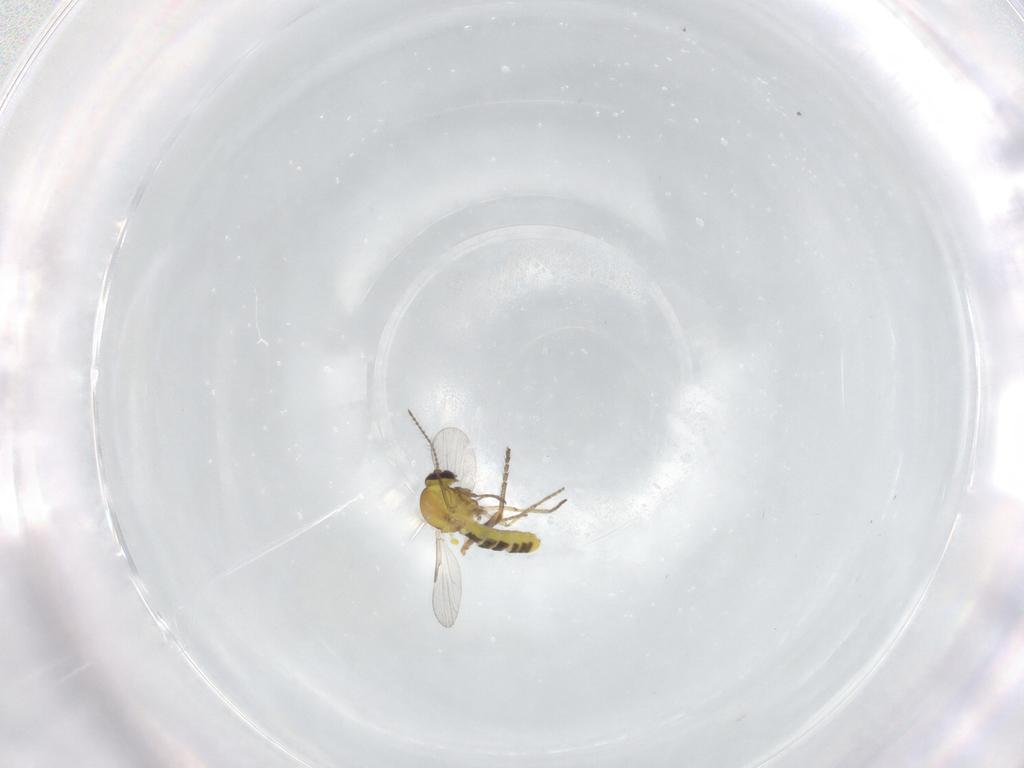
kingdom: Animalia
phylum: Arthropoda
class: Insecta
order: Diptera
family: Ceratopogonidae
